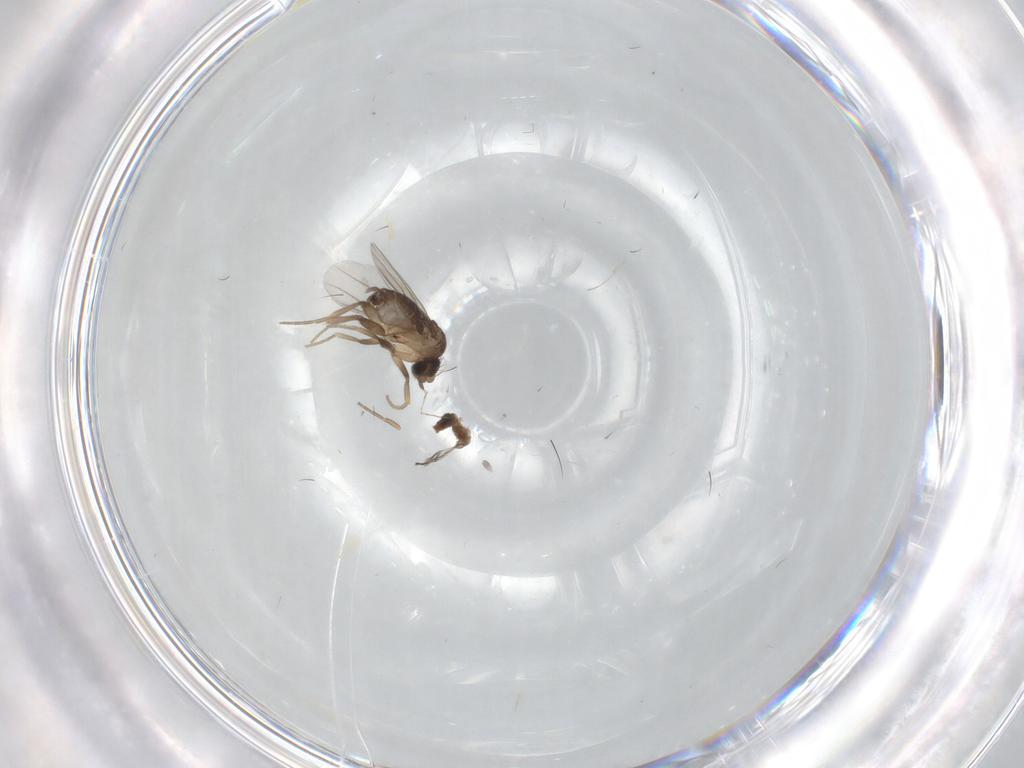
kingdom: Animalia
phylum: Arthropoda
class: Insecta
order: Diptera
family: Phoridae
